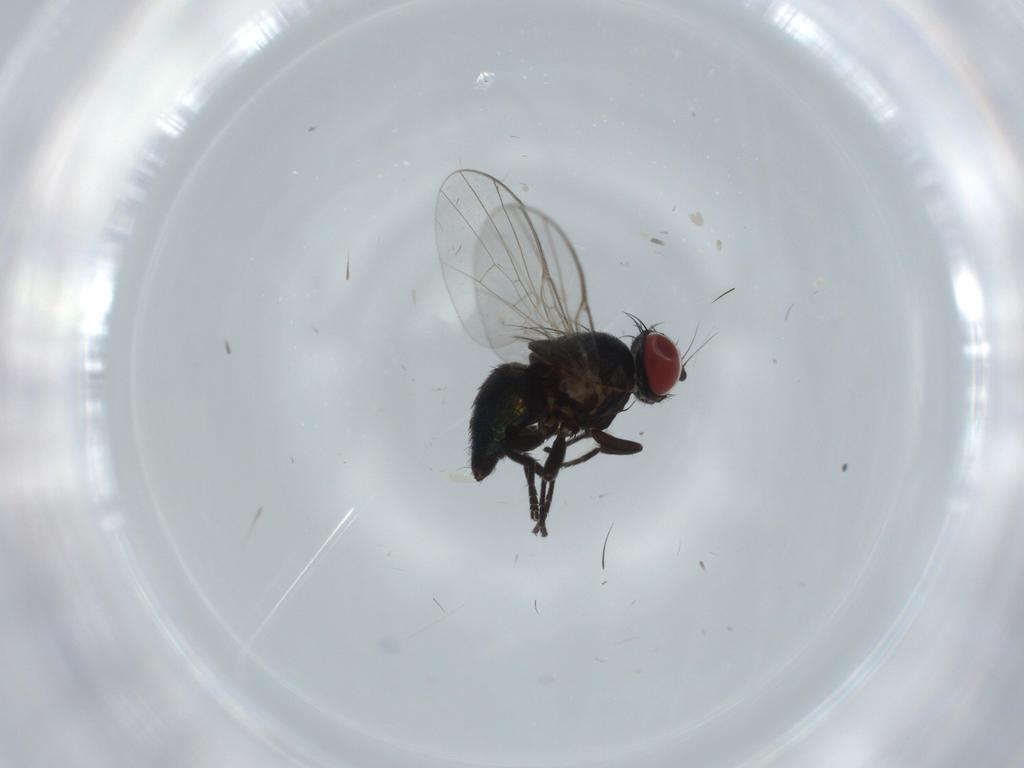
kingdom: Animalia
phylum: Arthropoda
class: Insecta
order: Diptera
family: Agromyzidae
